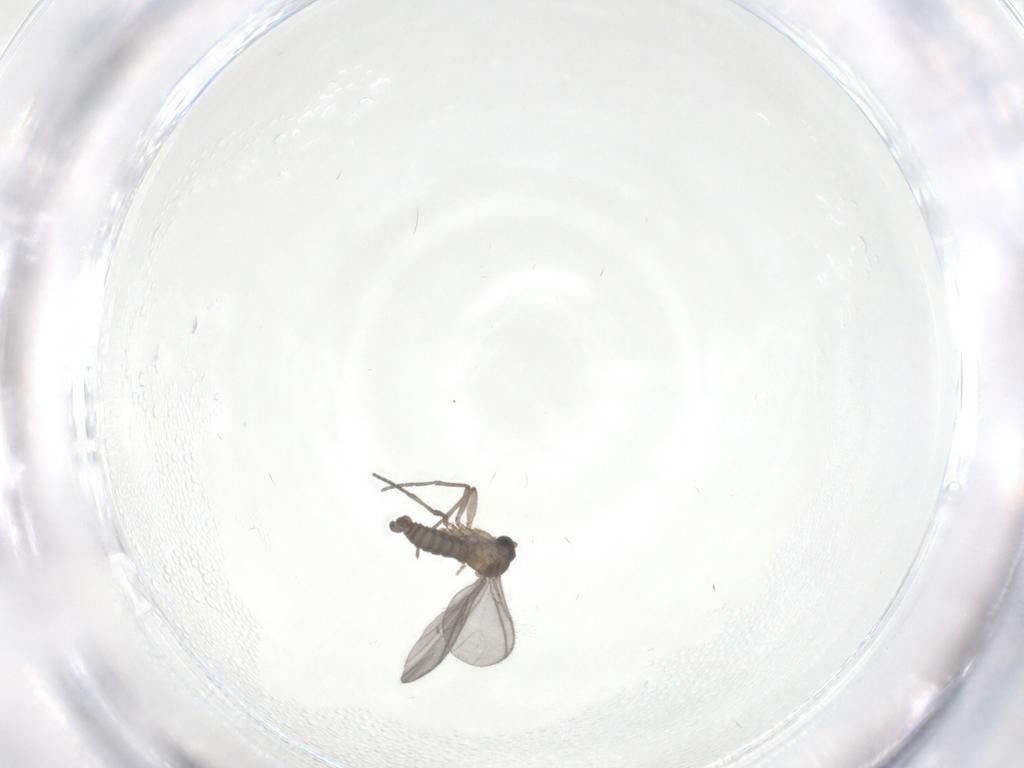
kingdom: Animalia
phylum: Arthropoda
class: Insecta
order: Diptera
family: Sciaridae
